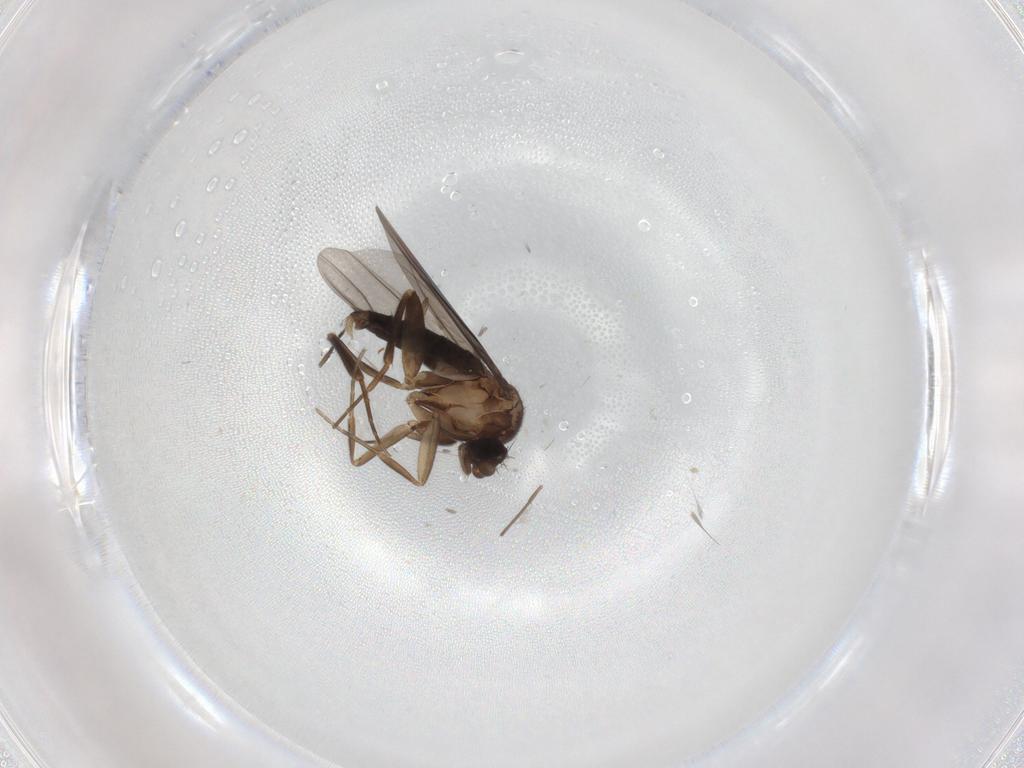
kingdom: Animalia
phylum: Arthropoda
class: Insecta
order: Diptera
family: Chironomidae
